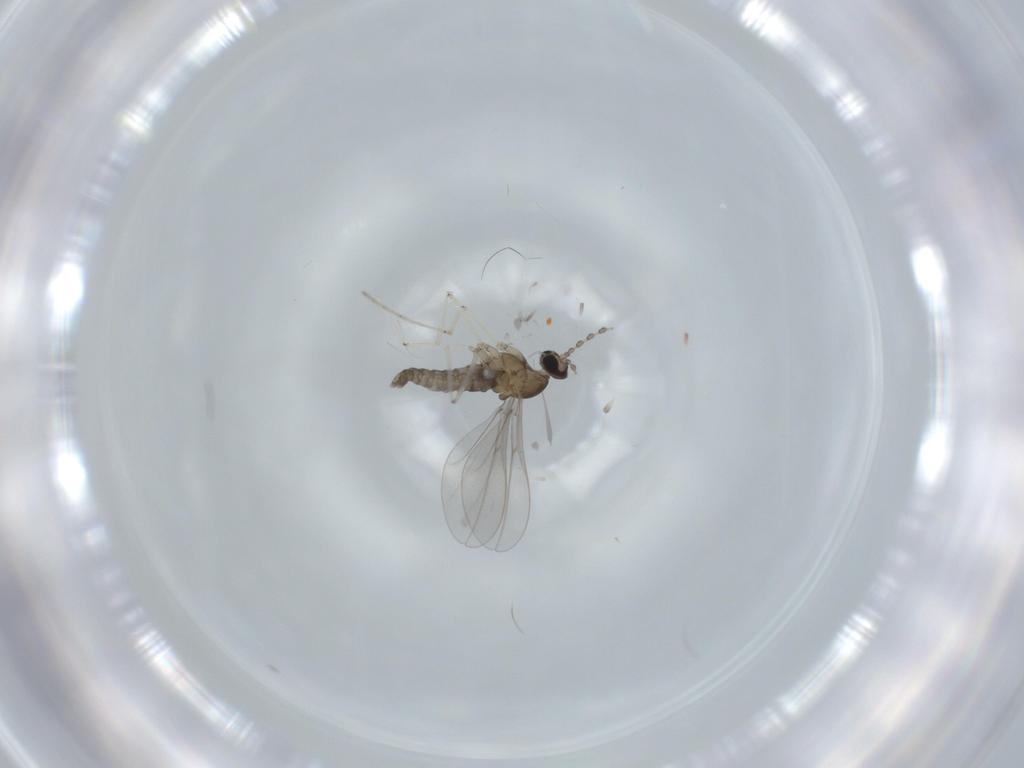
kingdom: Animalia
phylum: Arthropoda
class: Insecta
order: Diptera
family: Cecidomyiidae
